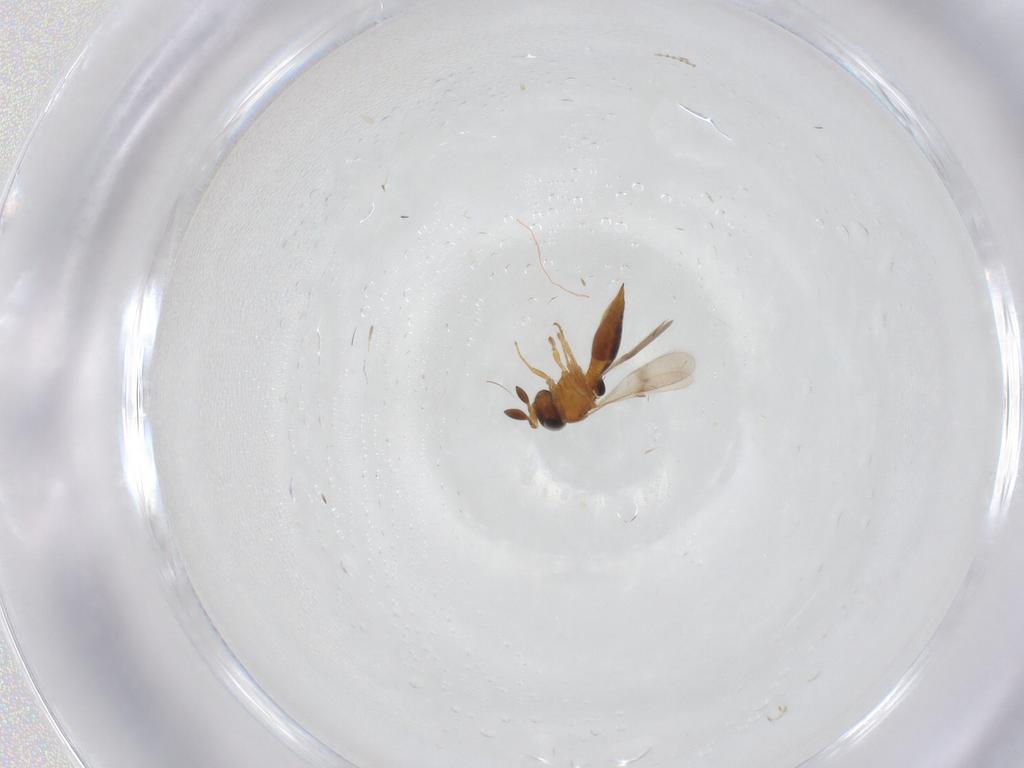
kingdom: Animalia
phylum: Arthropoda
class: Insecta
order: Hymenoptera
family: Scelionidae
